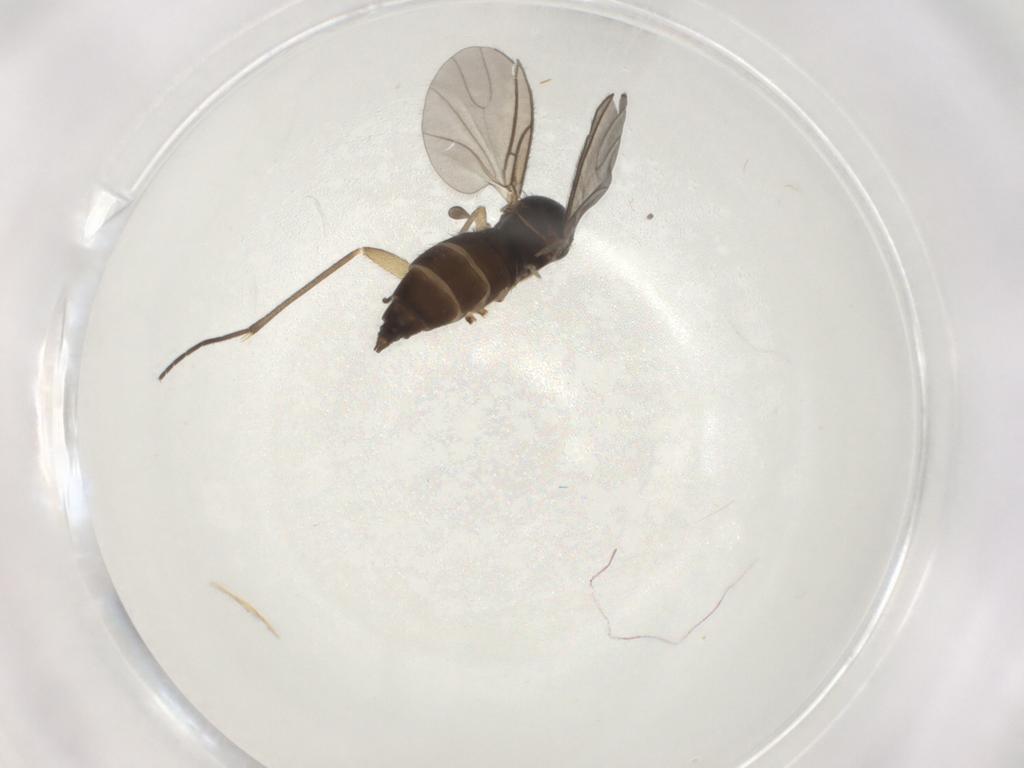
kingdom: Animalia
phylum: Arthropoda
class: Insecta
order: Diptera
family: Sciaridae
